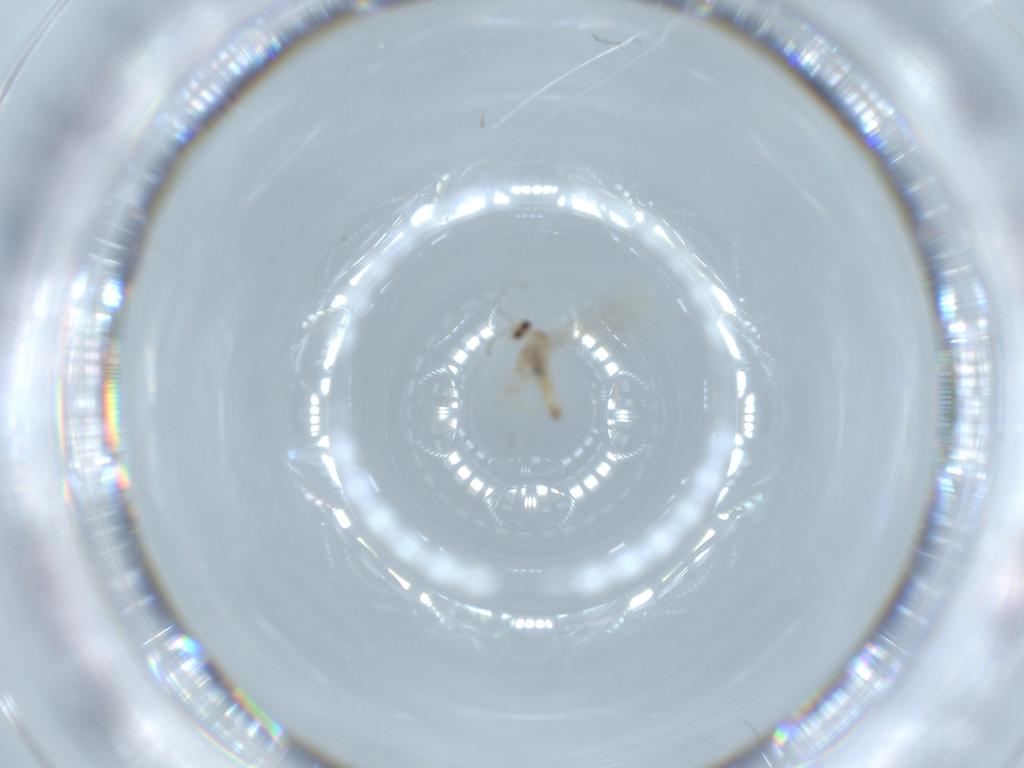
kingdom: Animalia
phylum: Arthropoda
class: Insecta
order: Diptera
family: Cecidomyiidae
